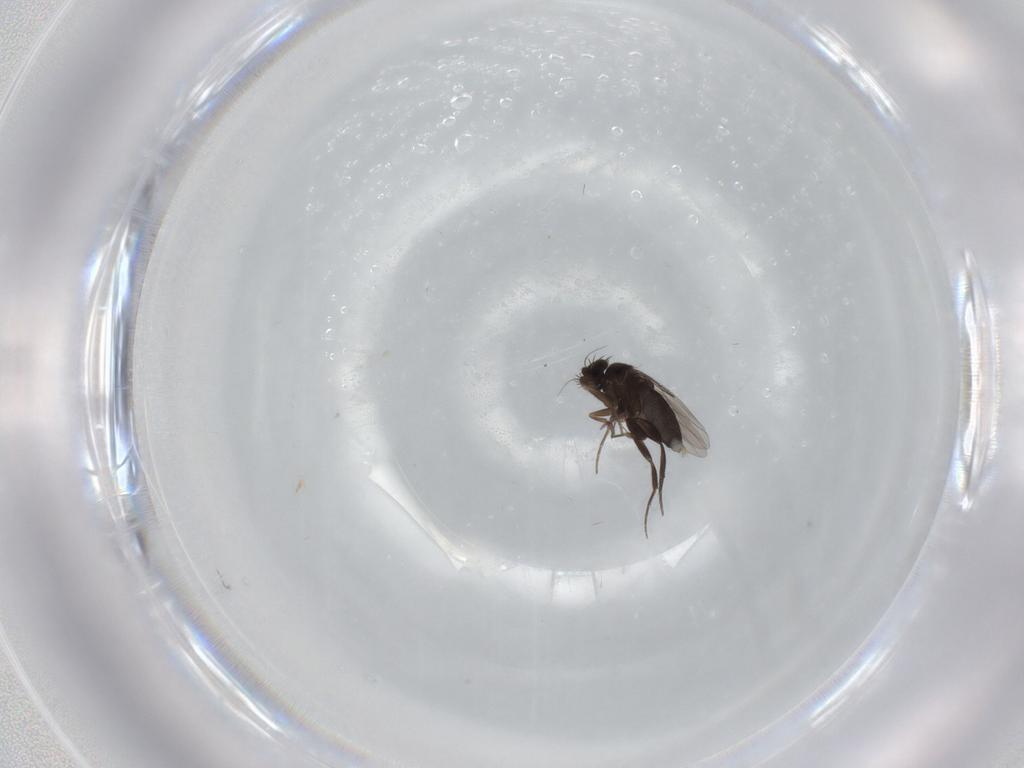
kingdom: Animalia
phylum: Arthropoda
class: Insecta
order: Diptera
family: Phoridae
